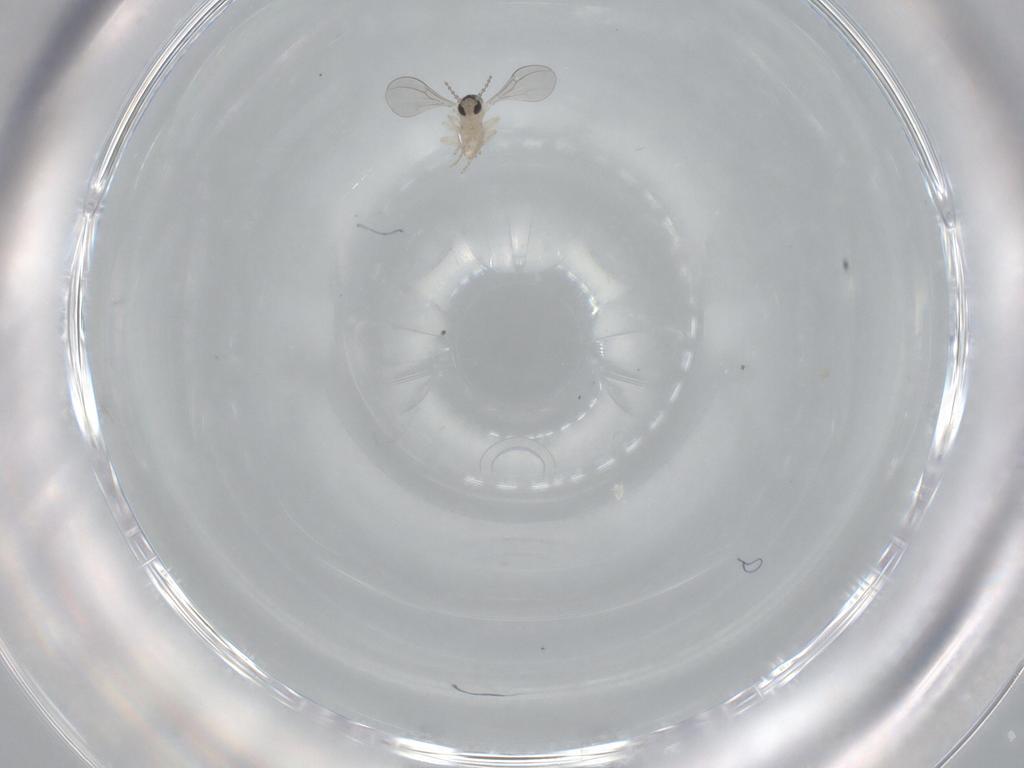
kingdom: Animalia
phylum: Arthropoda
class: Insecta
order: Diptera
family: Cecidomyiidae
